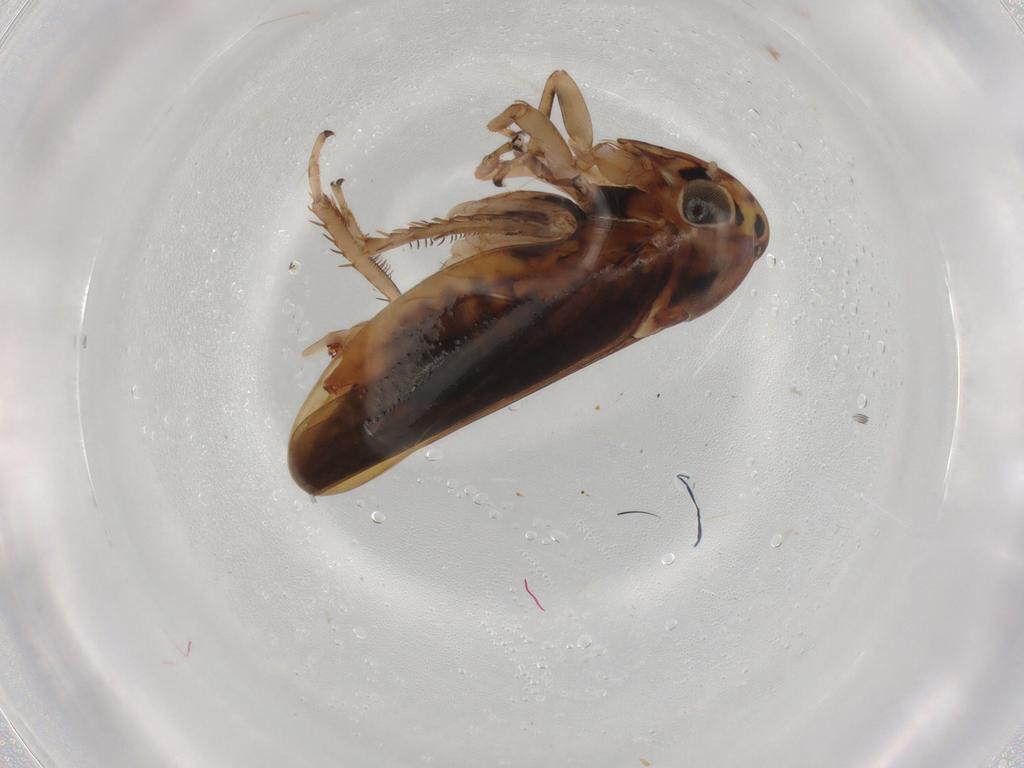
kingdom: Animalia
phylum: Arthropoda
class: Insecta
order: Hemiptera
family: Cicadellidae
